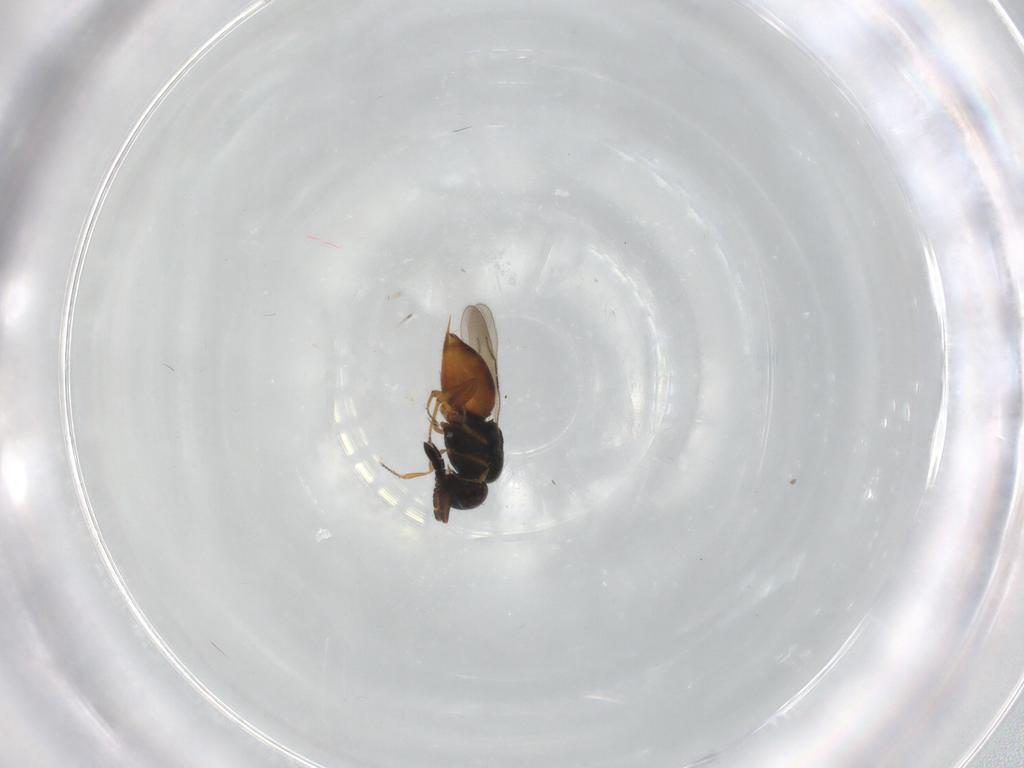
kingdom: Animalia
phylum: Arthropoda
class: Insecta
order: Hymenoptera
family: Ceraphronidae
